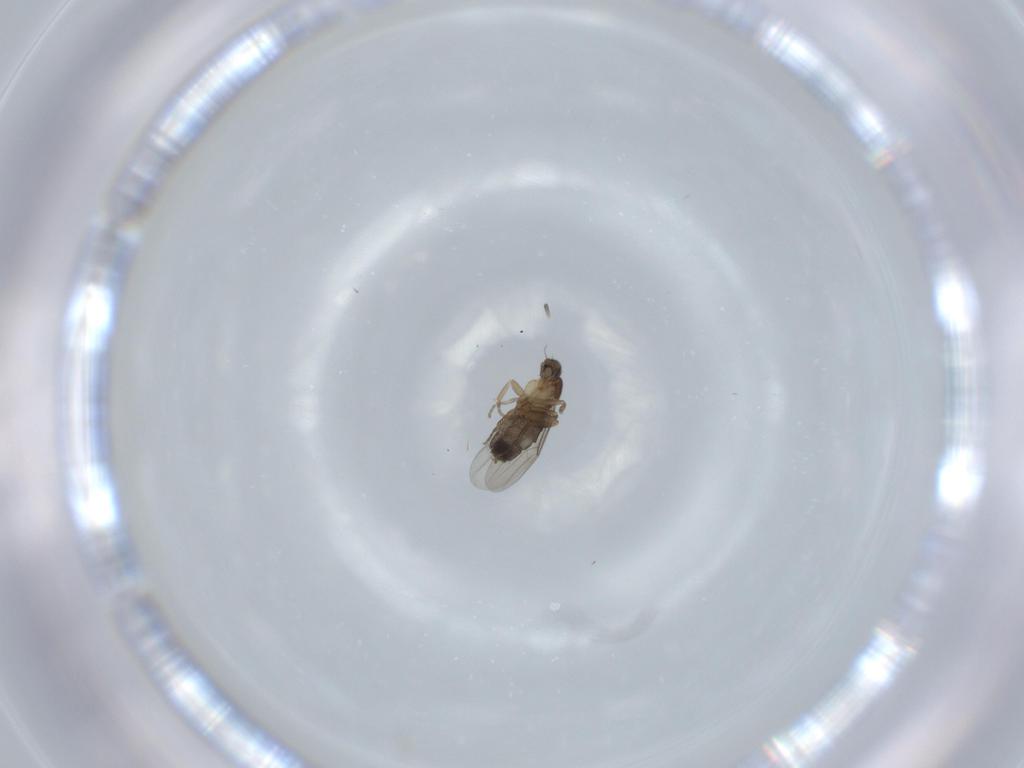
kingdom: Animalia
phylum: Arthropoda
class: Insecta
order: Diptera
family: Phoridae
